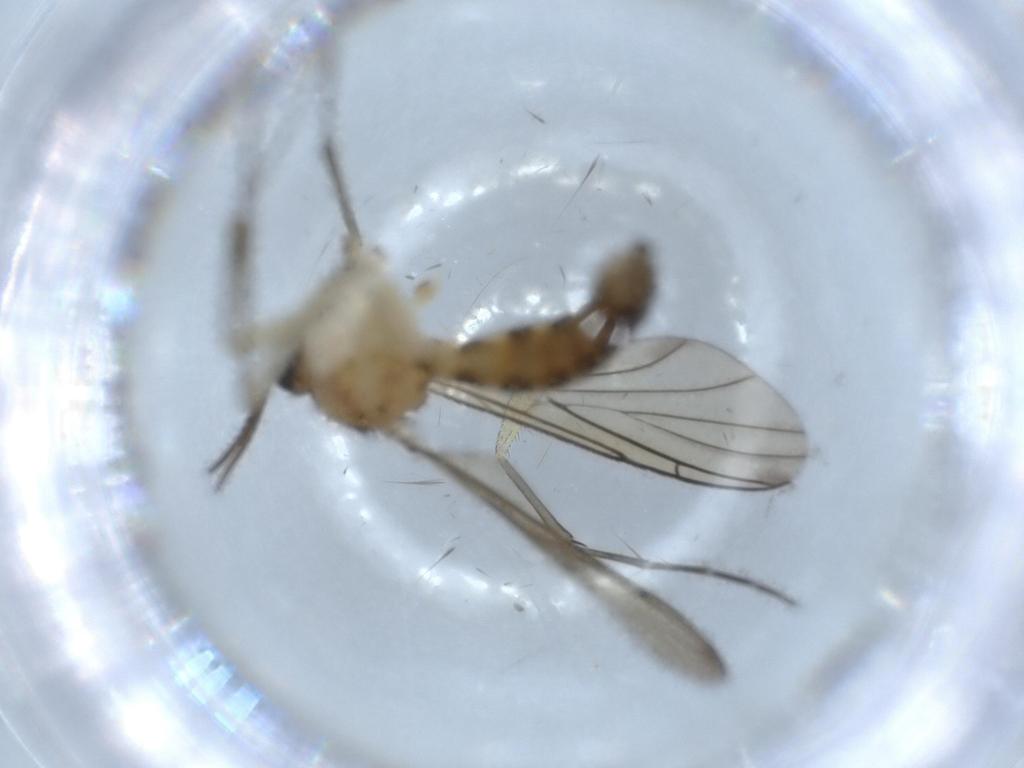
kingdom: Animalia
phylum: Arthropoda
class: Insecta
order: Diptera
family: Keroplatidae
